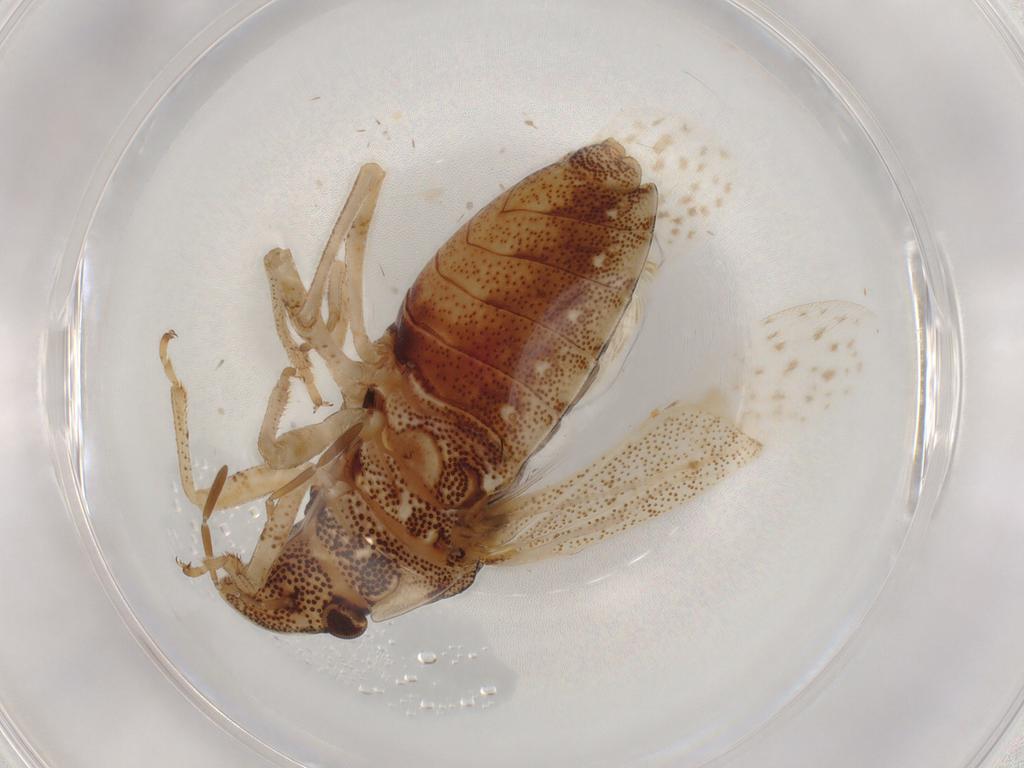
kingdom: Animalia
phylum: Arthropoda
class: Insecta
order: Hemiptera
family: Pentatomidae
